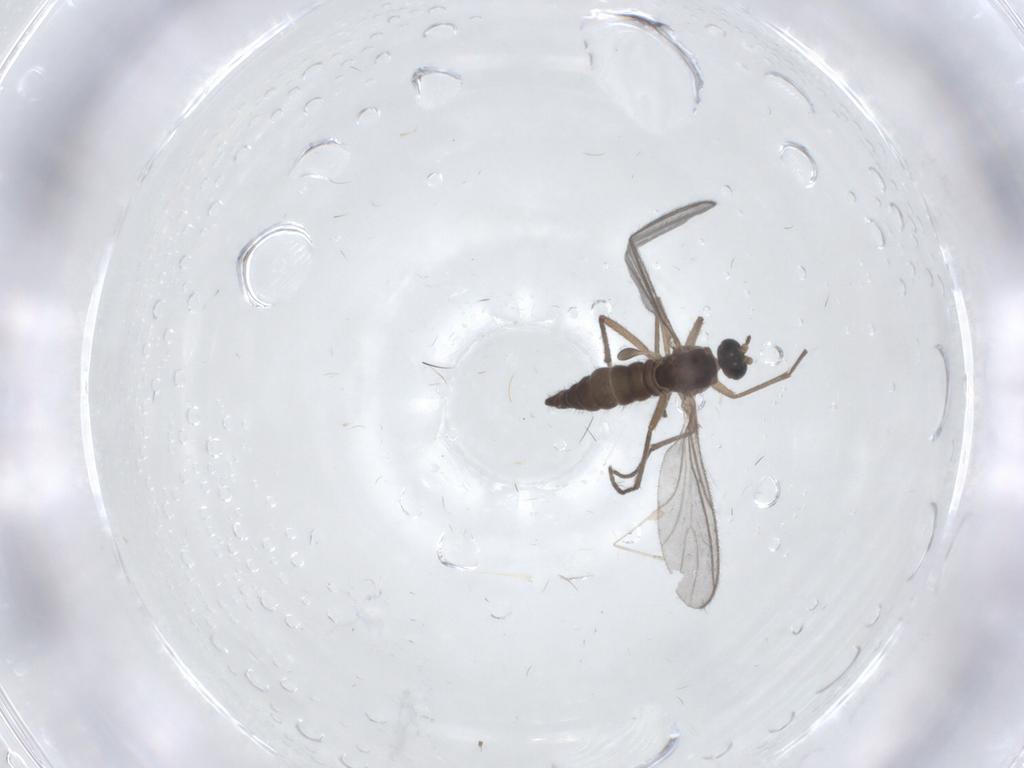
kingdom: Animalia
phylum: Arthropoda
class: Insecta
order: Diptera
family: Sciaridae
